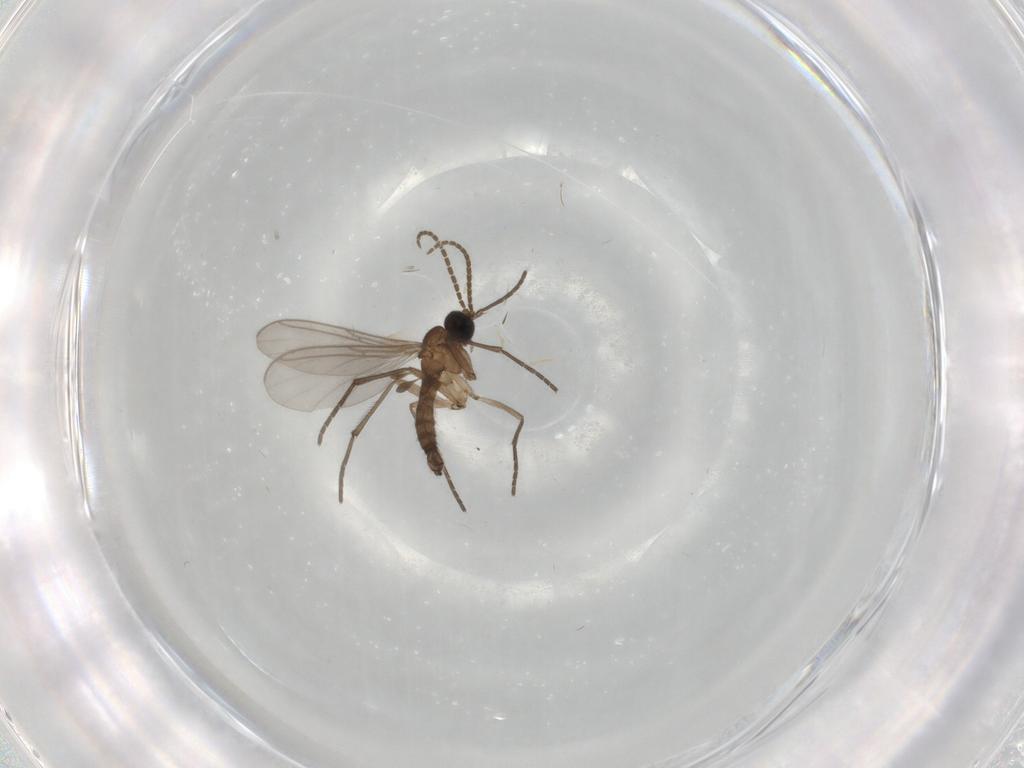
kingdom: Animalia
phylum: Arthropoda
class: Insecta
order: Diptera
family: Sciaridae
